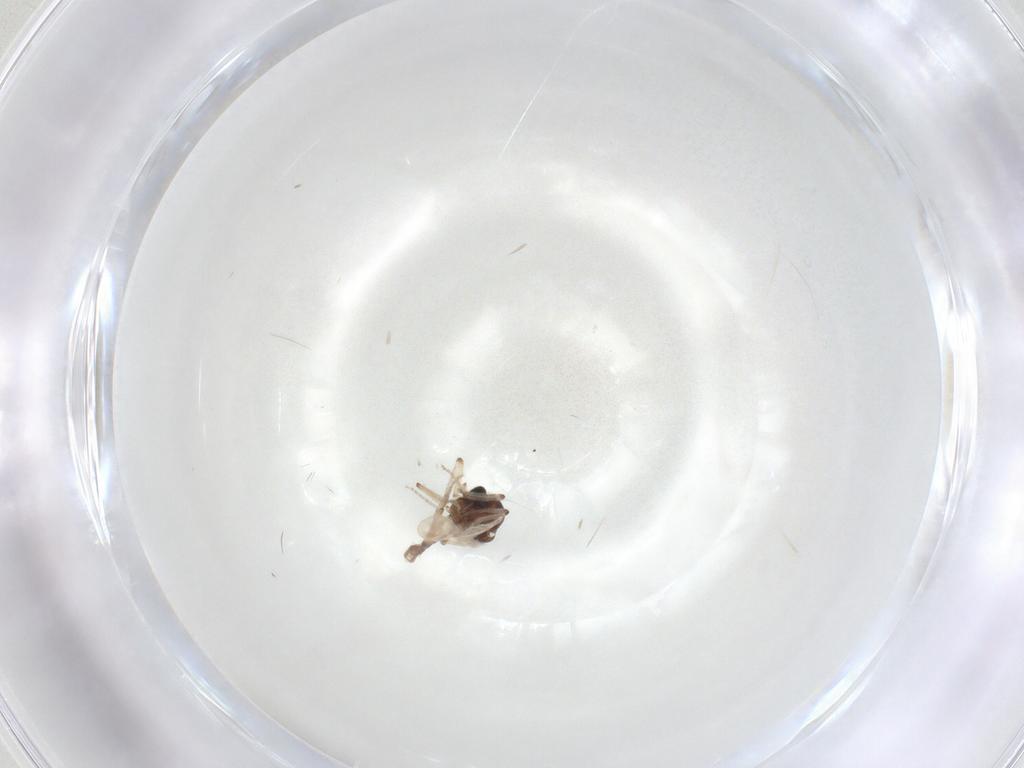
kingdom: Animalia
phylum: Arthropoda
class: Insecta
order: Diptera
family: Ceratopogonidae
